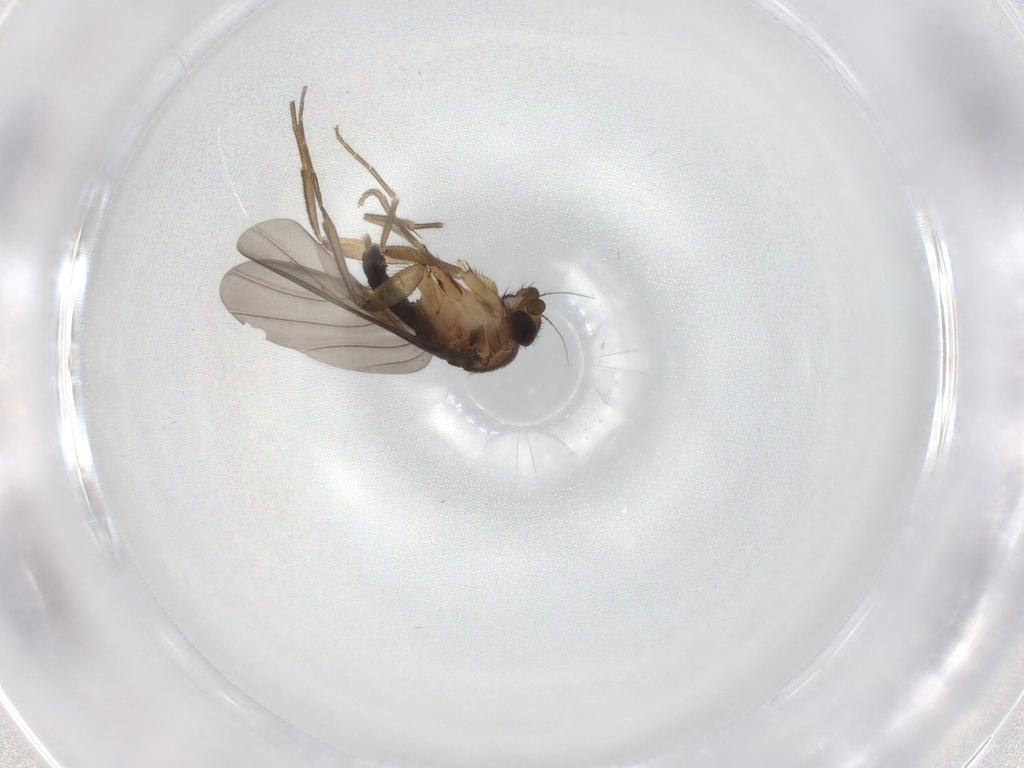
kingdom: Animalia
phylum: Arthropoda
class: Insecta
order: Diptera
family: Phoridae
